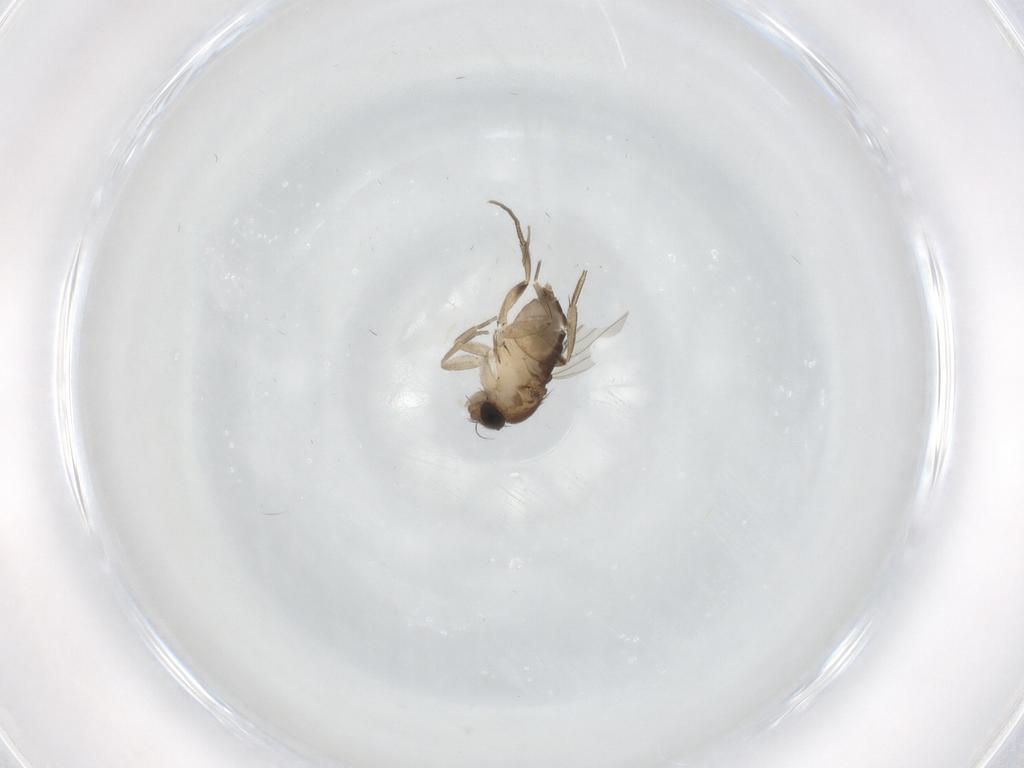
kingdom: Animalia
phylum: Arthropoda
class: Insecta
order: Diptera
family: Phoridae
